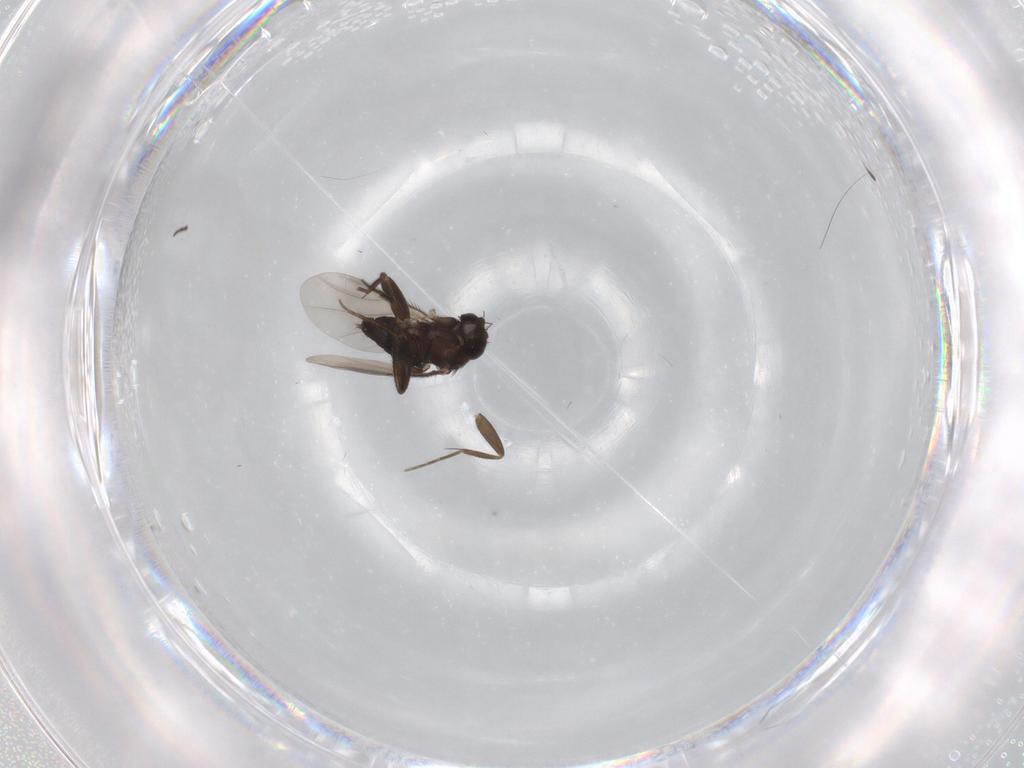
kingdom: Animalia
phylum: Arthropoda
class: Insecta
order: Diptera
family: Phoridae
